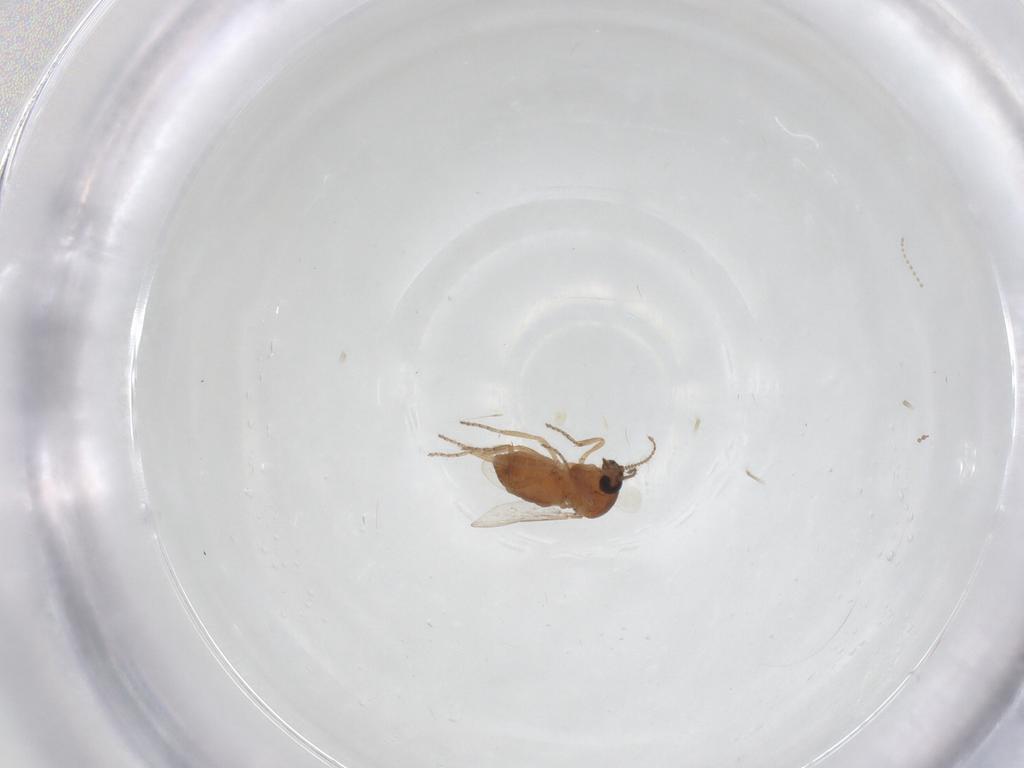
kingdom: Animalia
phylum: Arthropoda
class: Insecta
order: Diptera
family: Ceratopogonidae
